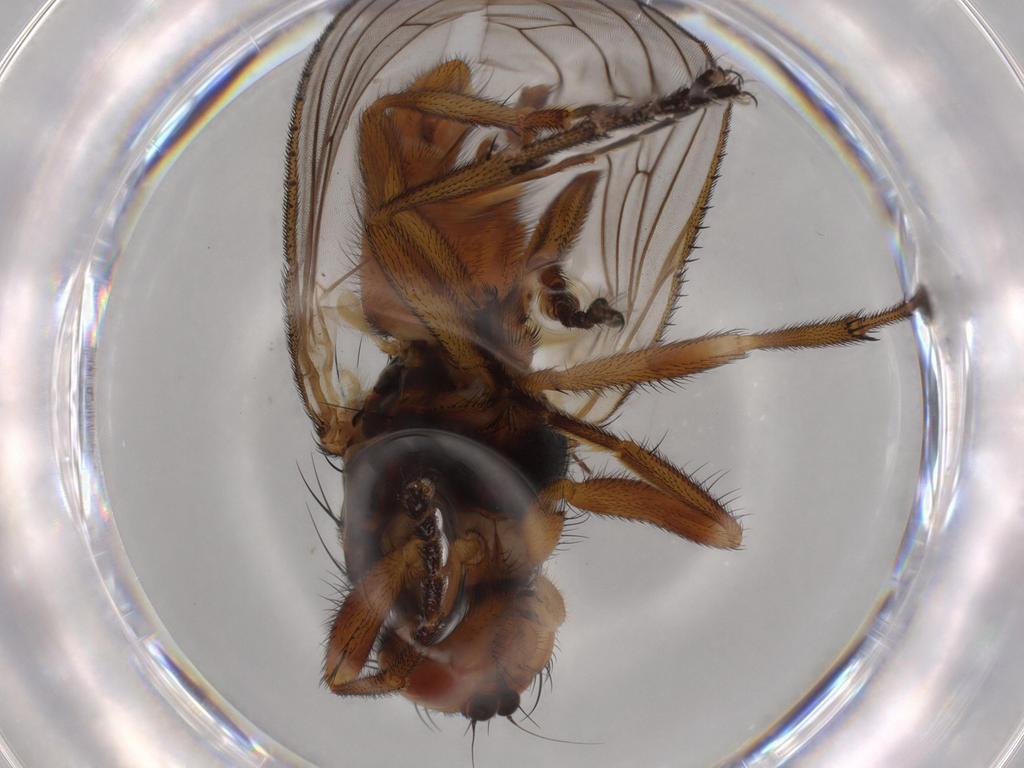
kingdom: Animalia
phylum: Arthropoda
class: Insecta
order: Diptera
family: Heleomyzidae
